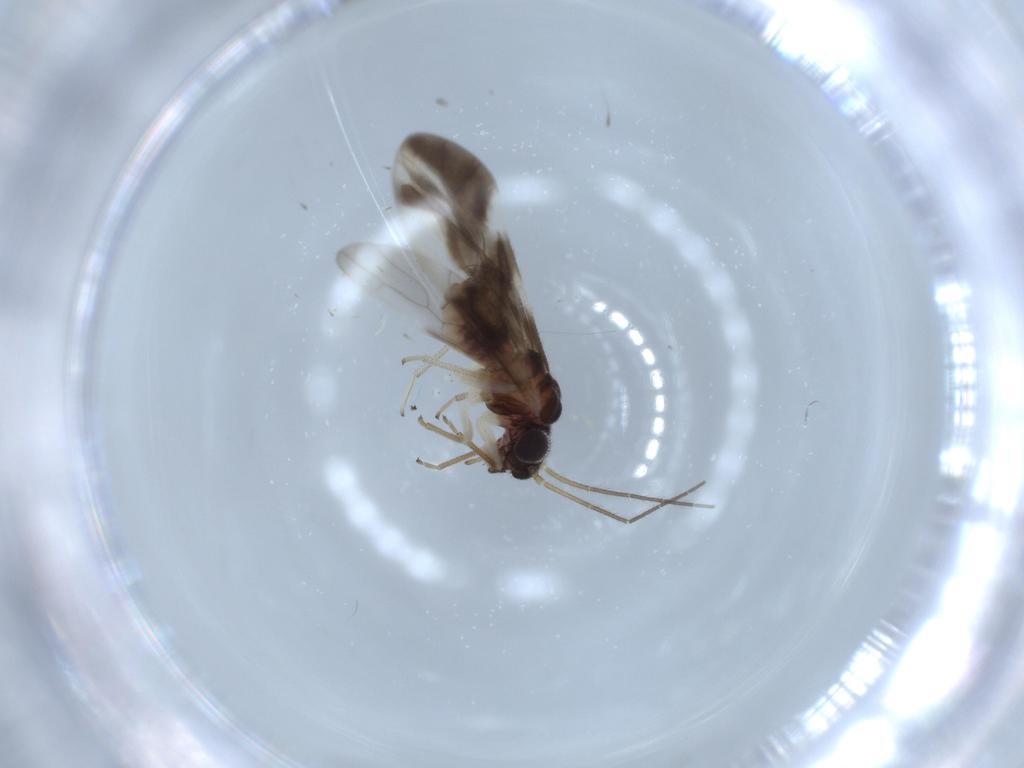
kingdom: Animalia
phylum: Arthropoda
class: Insecta
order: Psocodea
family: Caeciliusidae
